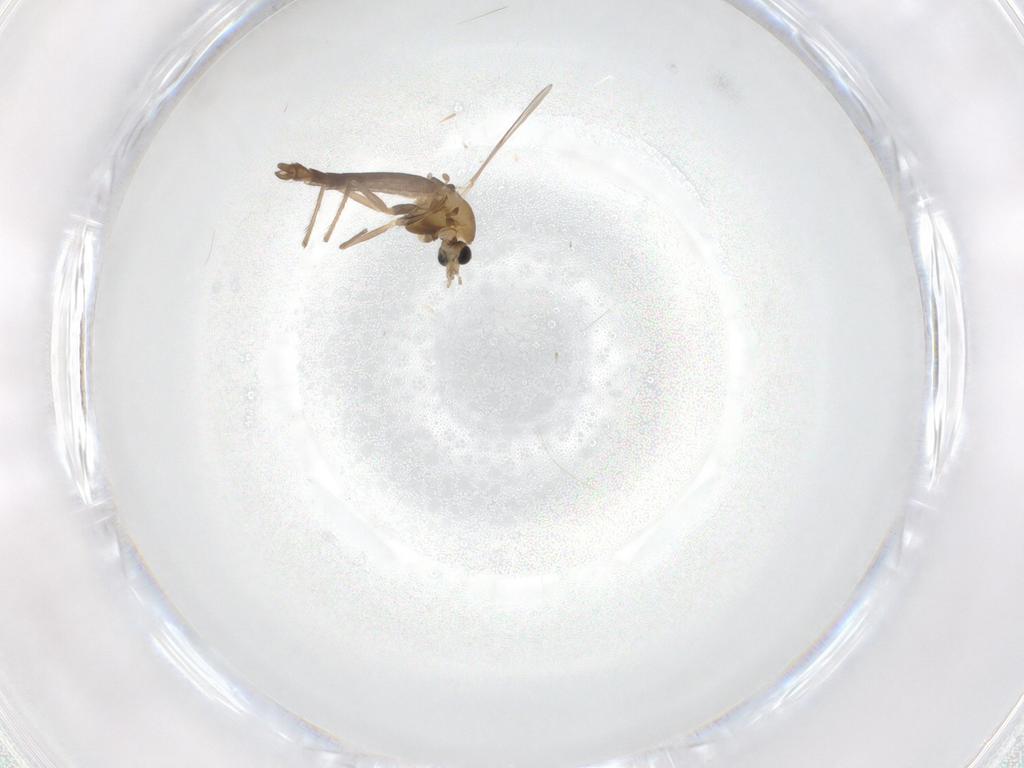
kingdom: Animalia
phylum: Arthropoda
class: Insecta
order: Diptera
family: Chironomidae
